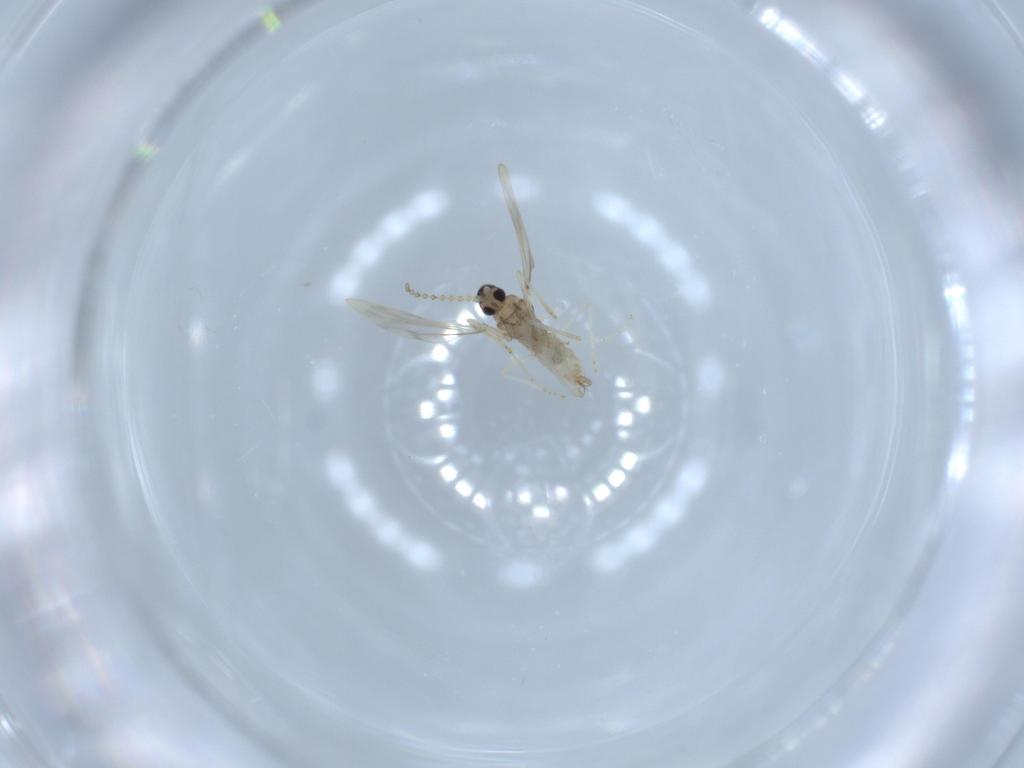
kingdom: Animalia
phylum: Arthropoda
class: Insecta
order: Diptera
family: Cecidomyiidae
